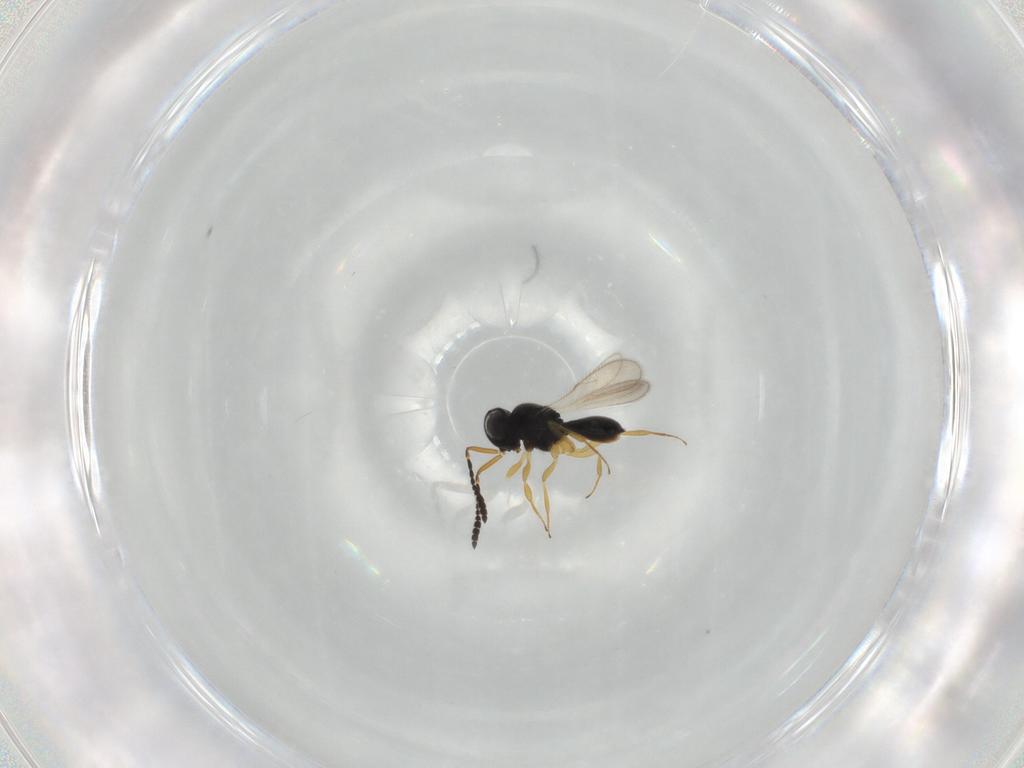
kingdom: Animalia
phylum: Arthropoda
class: Insecta
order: Hymenoptera
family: Scelionidae
